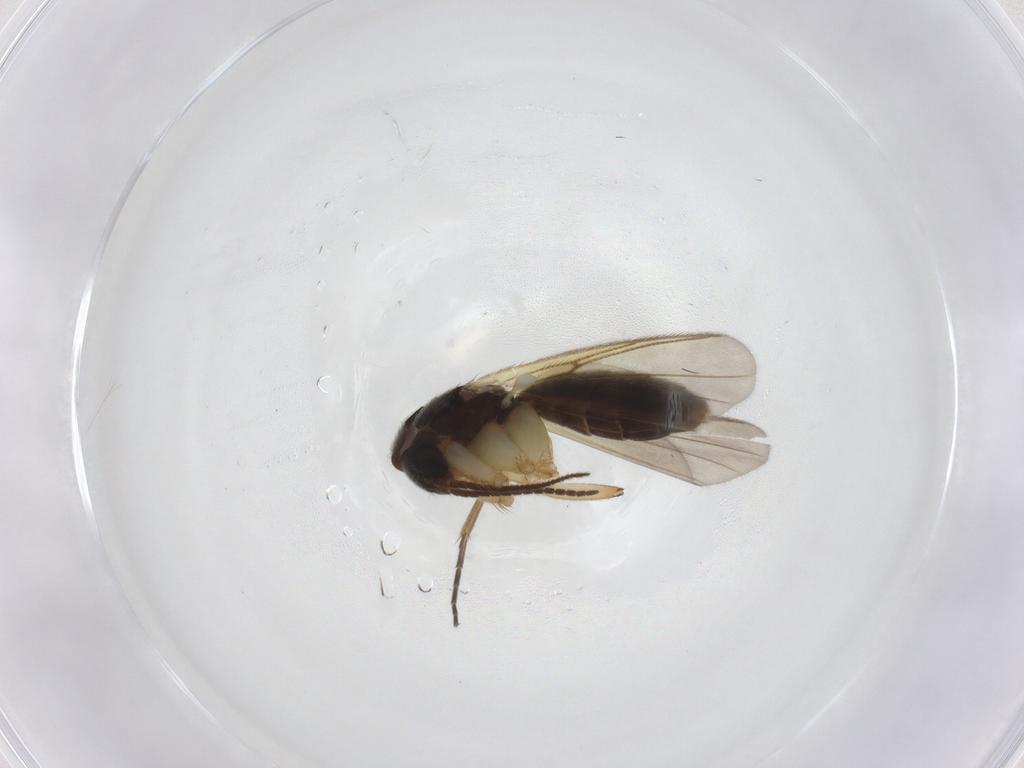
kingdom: Animalia
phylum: Arthropoda
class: Insecta
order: Diptera
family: Mycetophilidae
